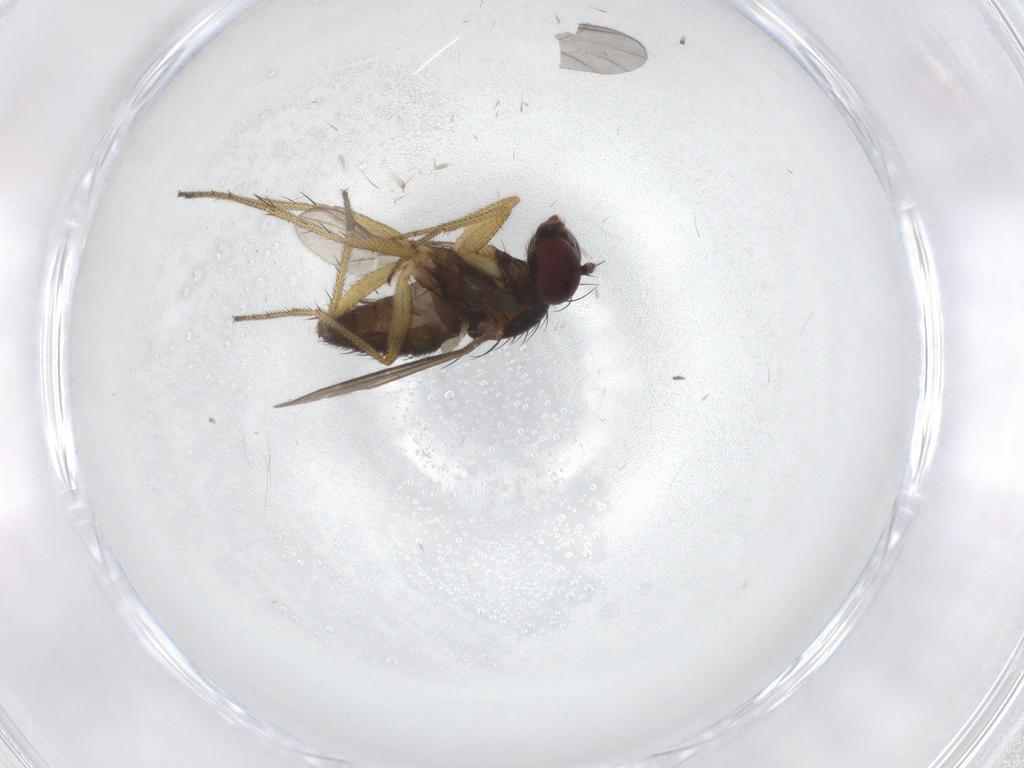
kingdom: Animalia
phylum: Arthropoda
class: Insecta
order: Diptera
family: Chironomidae
